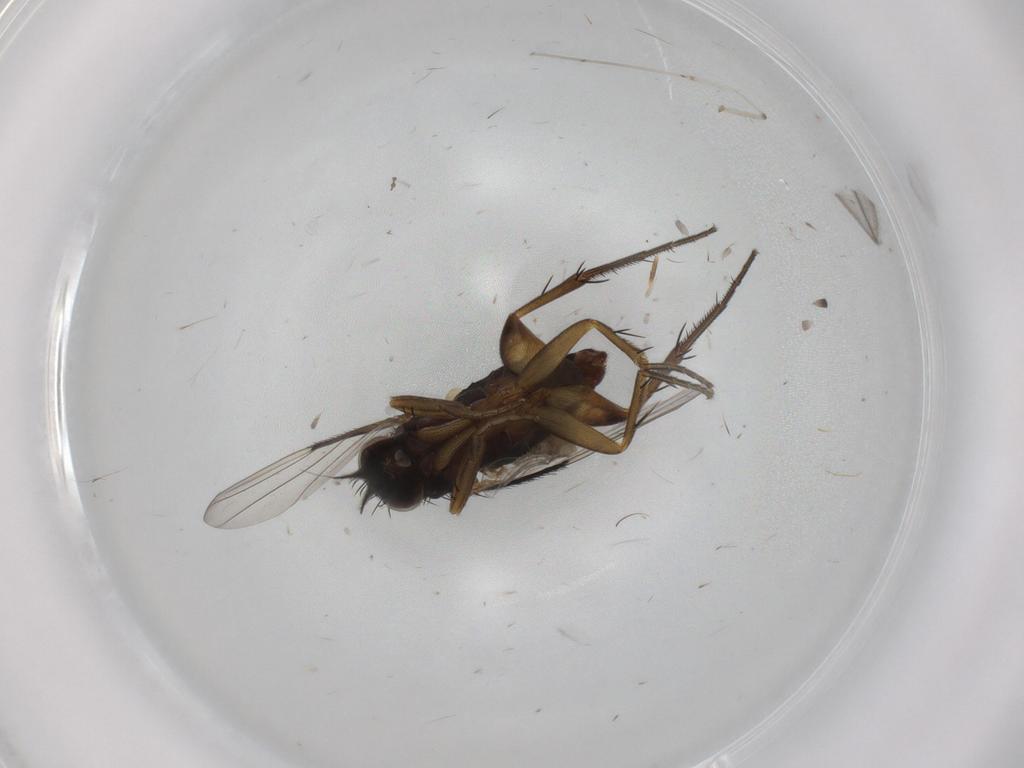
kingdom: Animalia
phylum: Arthropoda
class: Insecta
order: Diptera
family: Phoridae
